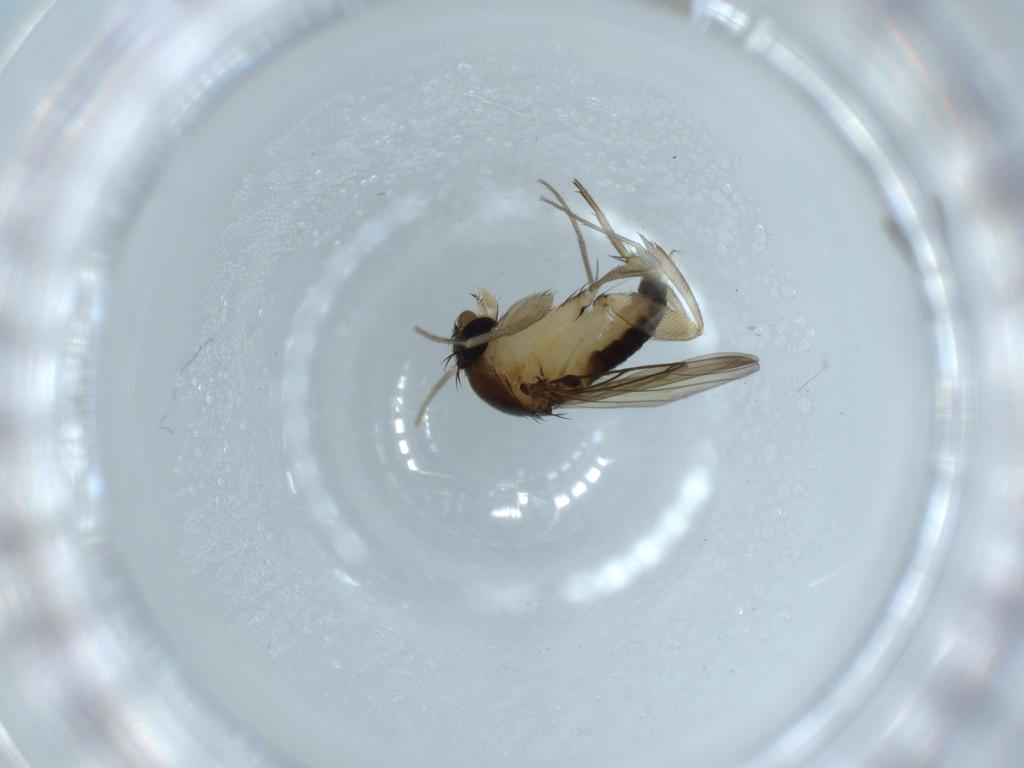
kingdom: Animalia
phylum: Arthropoda
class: Insecta
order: Diptera
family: Phoridae
